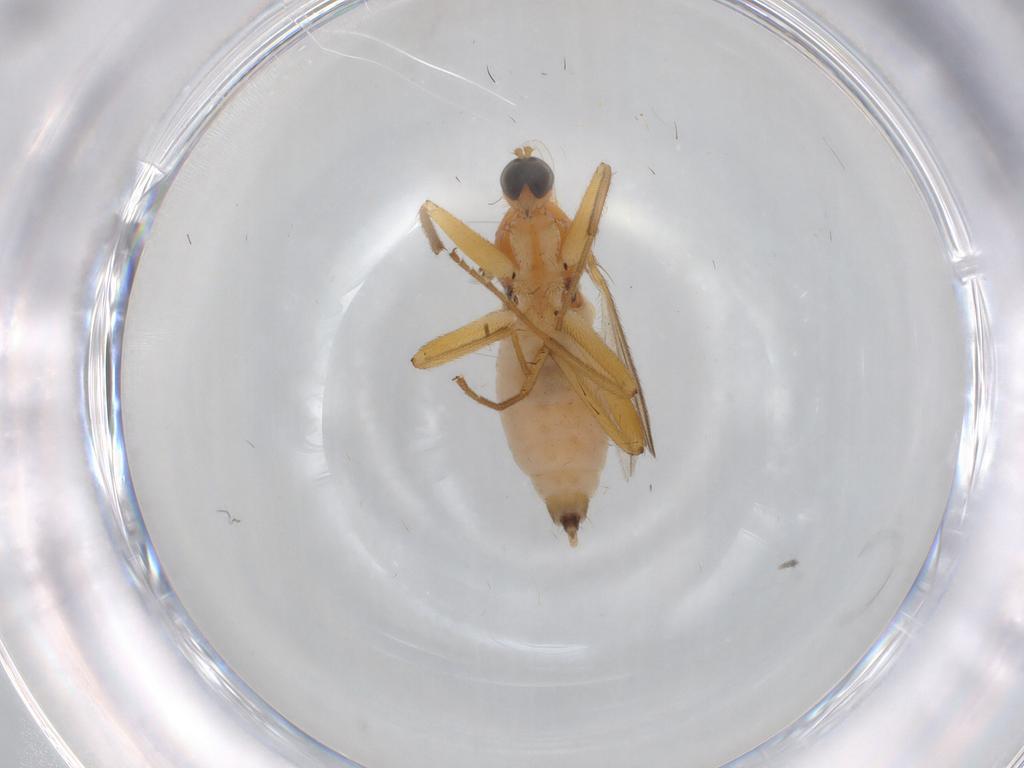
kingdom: Animalia
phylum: Arthropoda
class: Insecta
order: Diptera
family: Hybotidae
